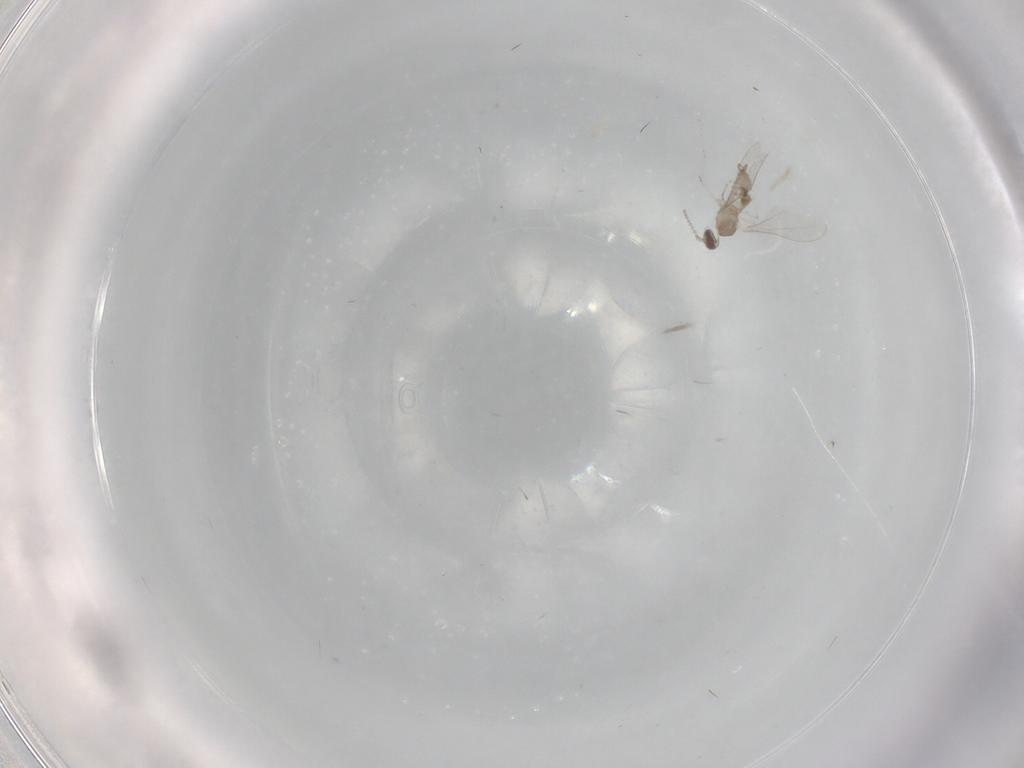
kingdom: Animalia
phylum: Arthropoda
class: Insecta
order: Diptera
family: Cecidomyiidae
